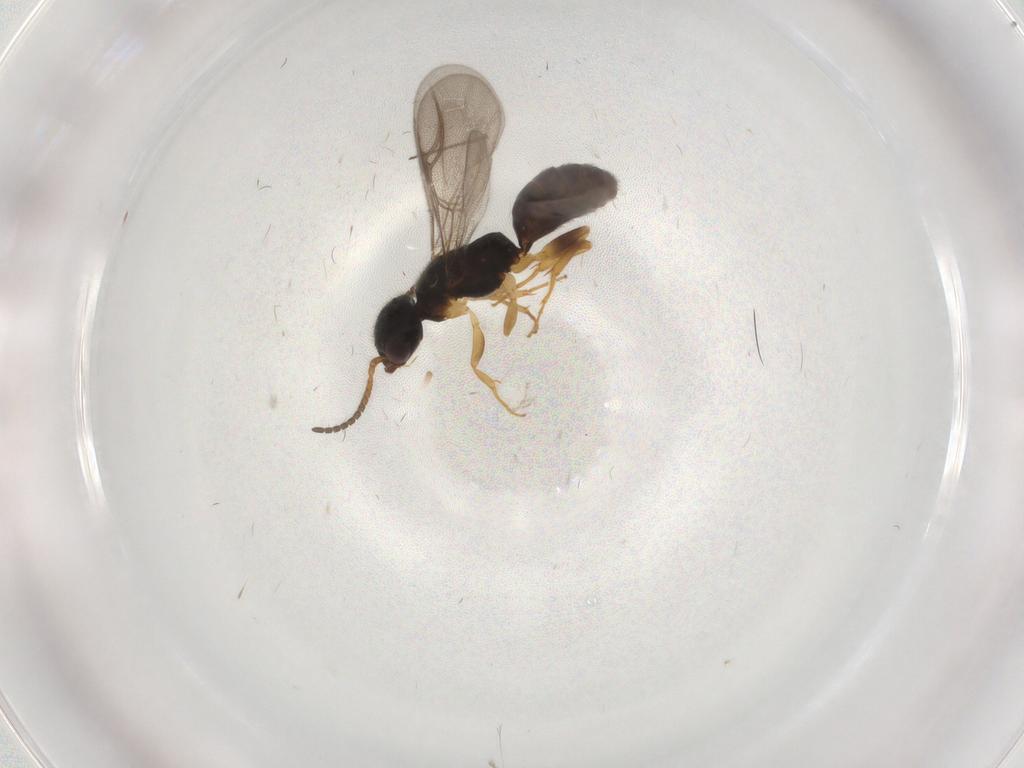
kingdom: Animalia
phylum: Arthropoda
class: Insecta
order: Hymenoptera
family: Bethylidae
